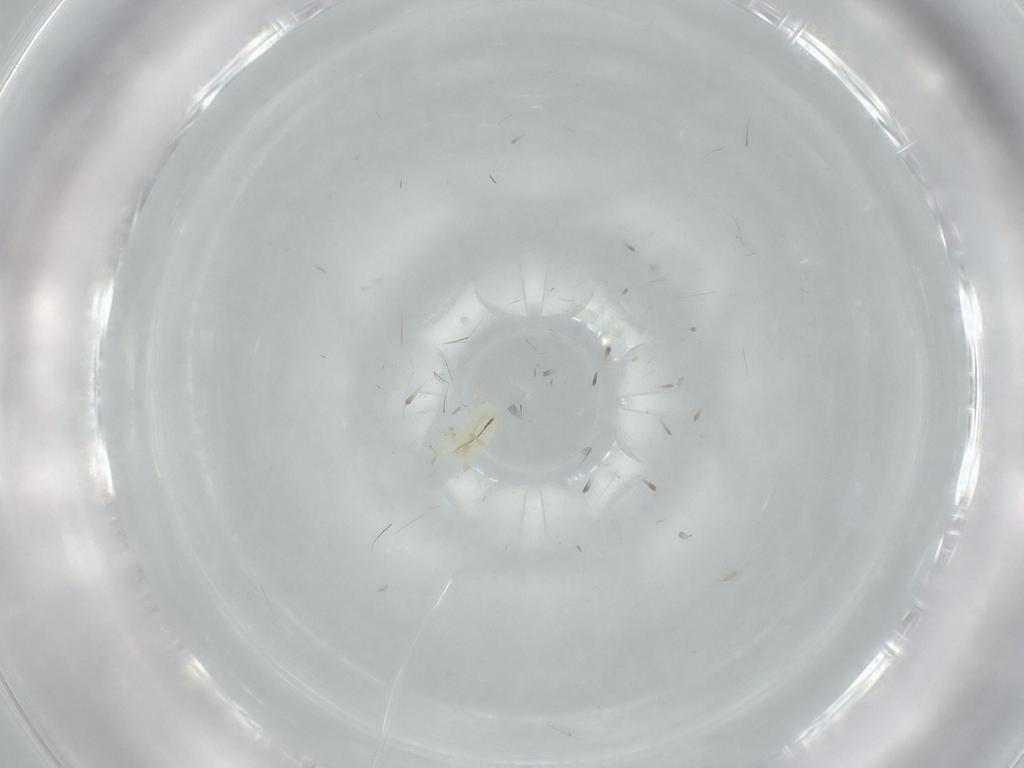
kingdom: Animalia
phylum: Arthropoda
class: Arachnida
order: Trombidiformes
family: Podothrombiidae
